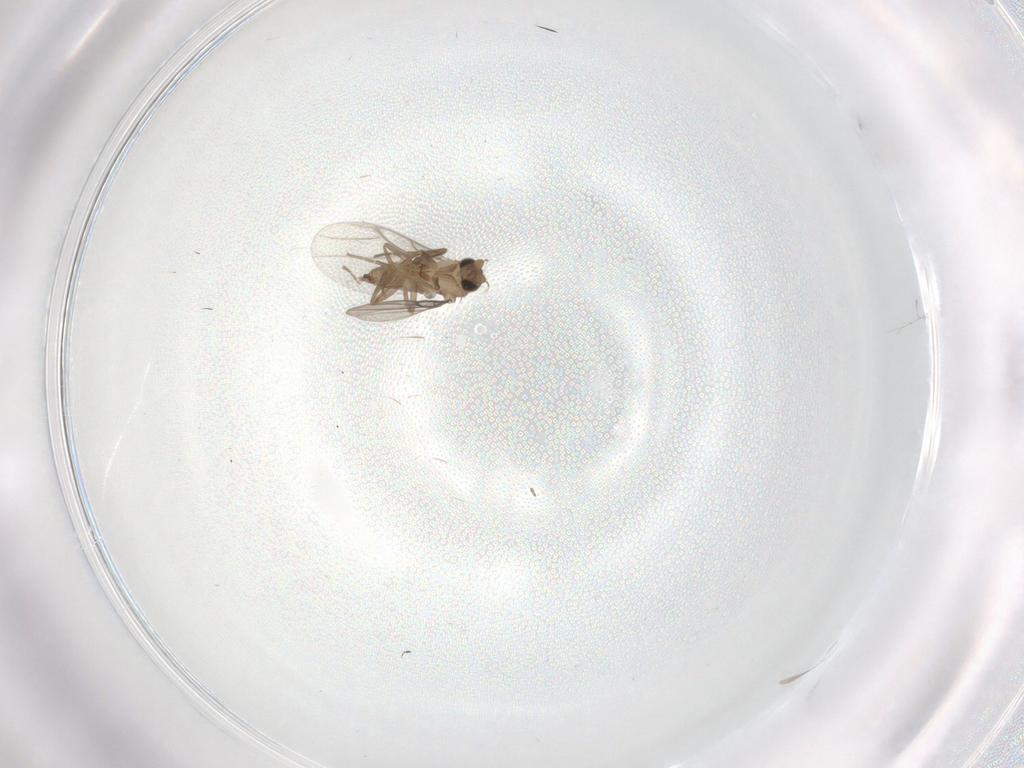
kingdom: Animalia
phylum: Arthropoda
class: Insecta
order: Diptera
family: Chironomidae
